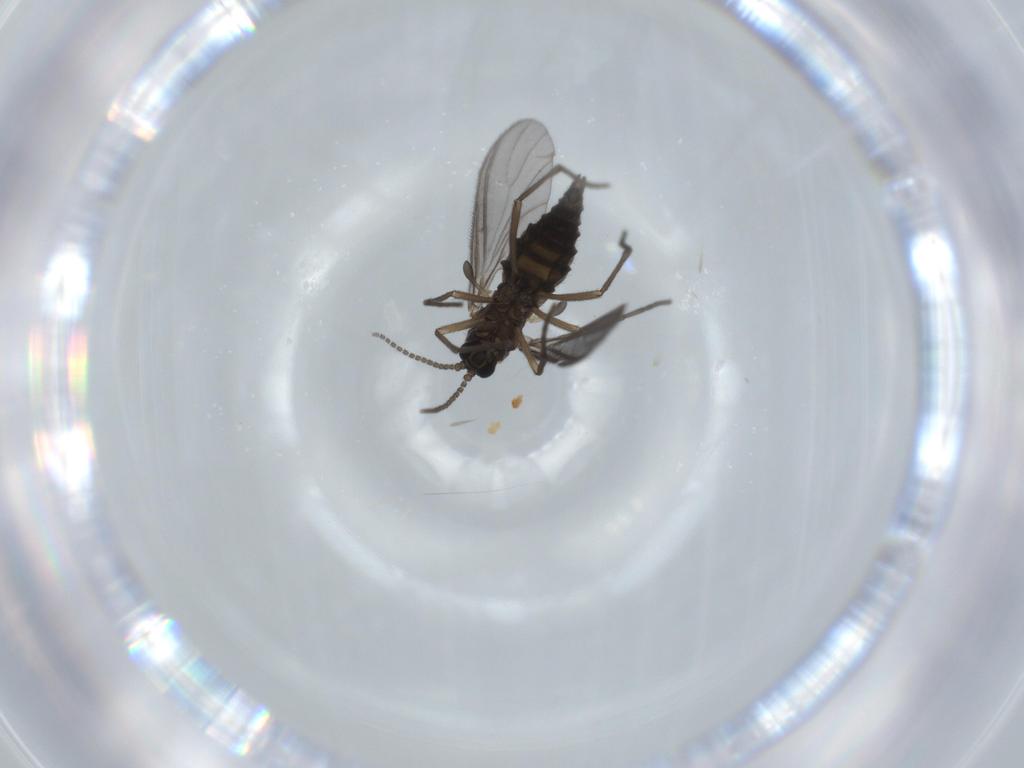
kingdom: Animalia
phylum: Arthropoda
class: Insecta
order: Diptera
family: Sciaridae
